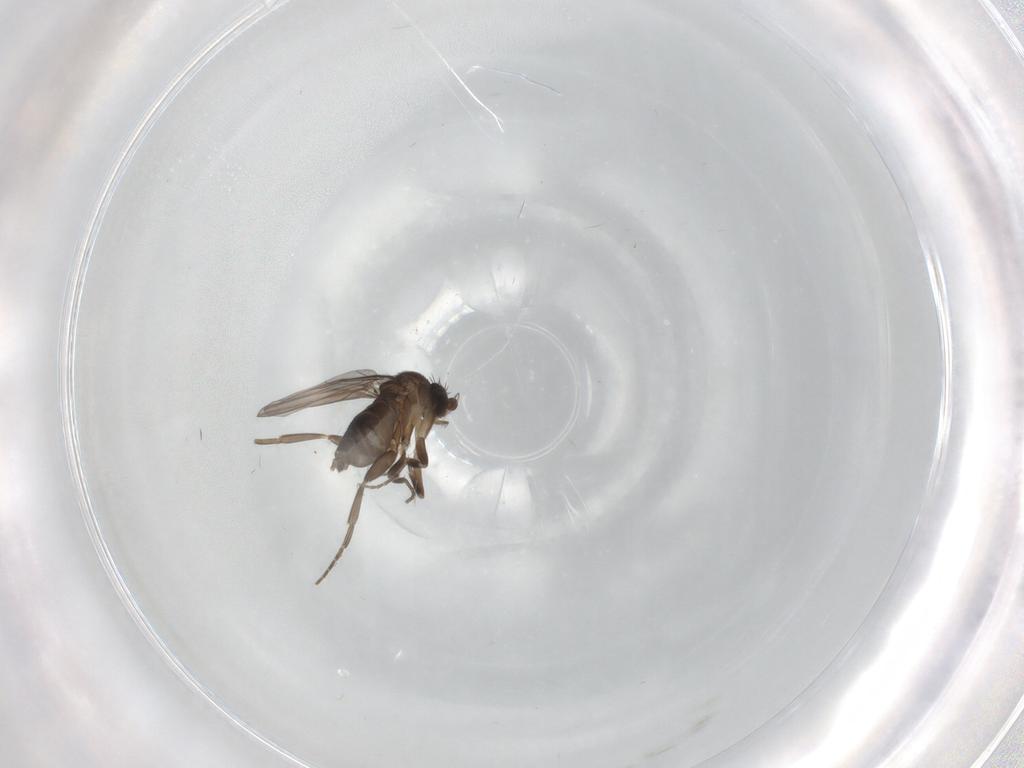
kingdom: Animalia
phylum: Arthropoda
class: Insecta
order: Diptera
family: Phoridae
